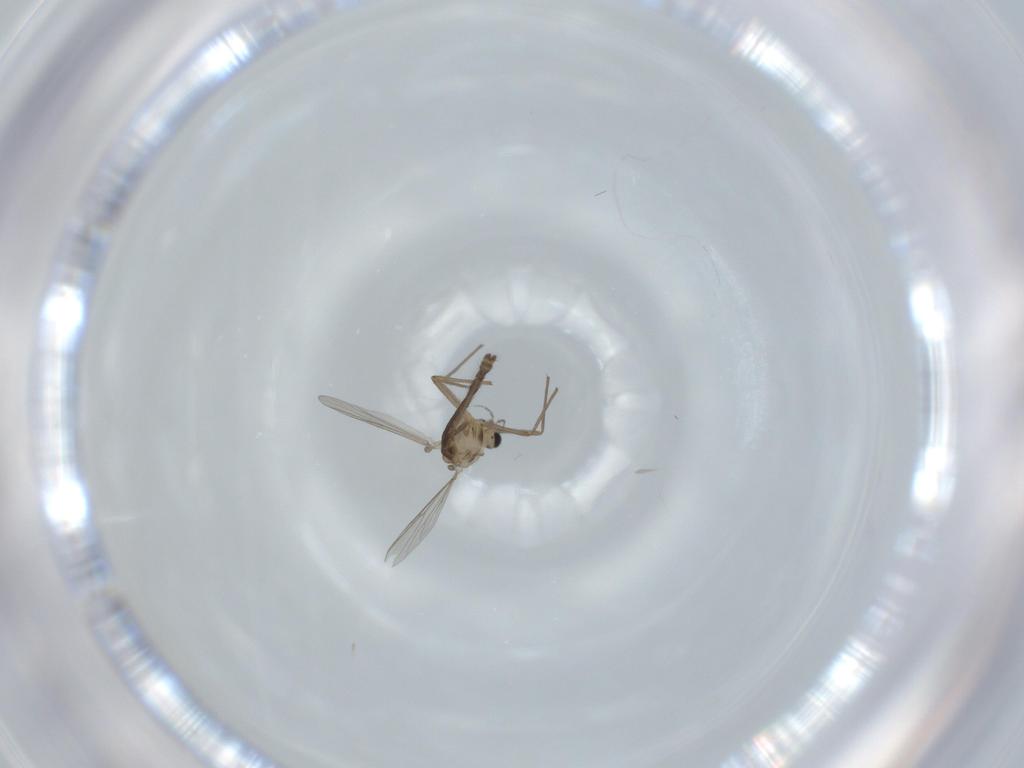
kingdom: Animalia
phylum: Arthropoda
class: Insecta
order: Diptera
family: Chironomidae
